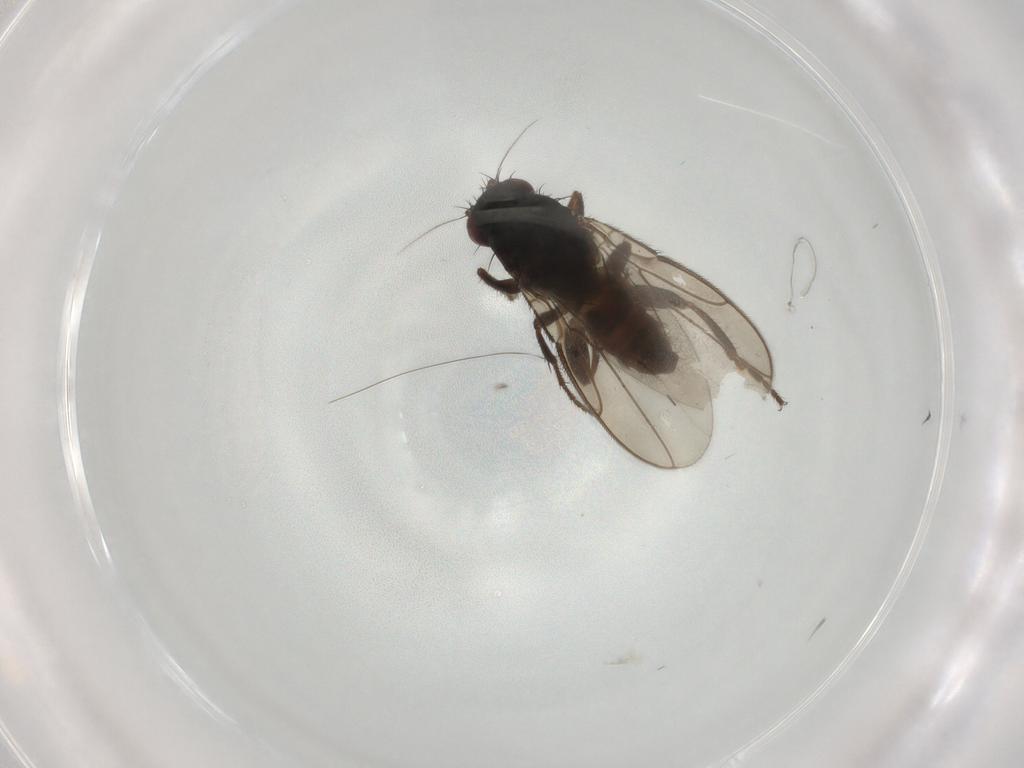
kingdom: Animalia
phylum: Arthropoda
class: Insecta
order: Diptera
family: Sphaeroceridae
